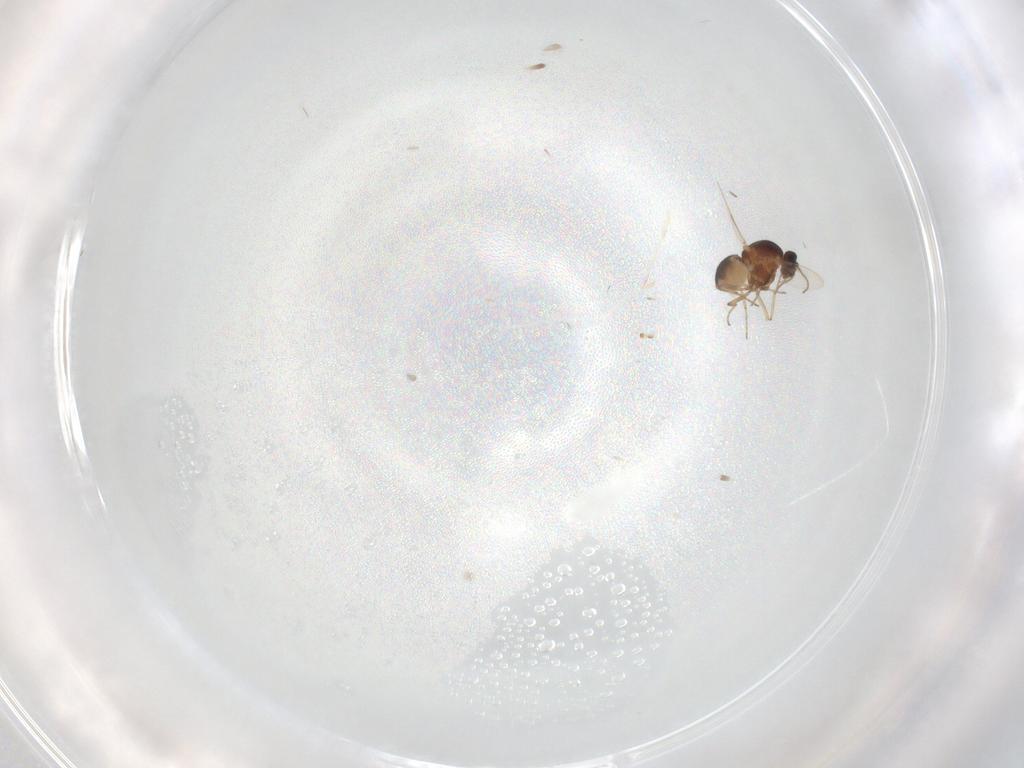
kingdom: Animalia
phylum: Arthropoda
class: Insecta
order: Diptera
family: Cecidomyiidae
